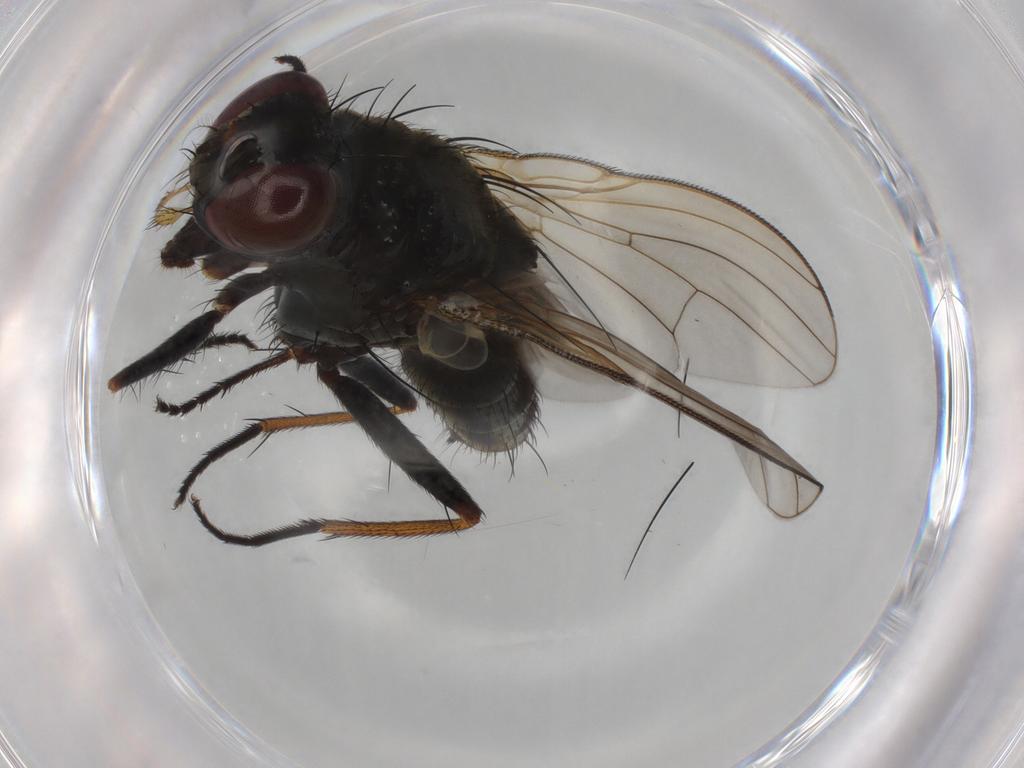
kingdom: Animalia
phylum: Arthropoda
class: Insecta
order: Diptera
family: Muscidae
